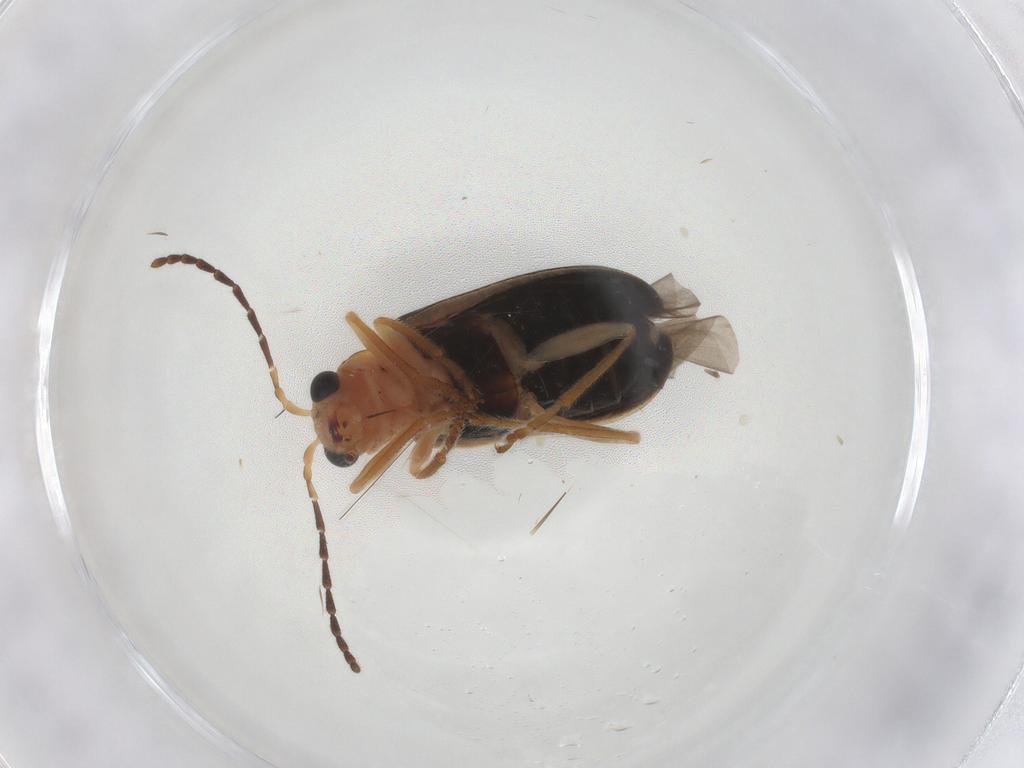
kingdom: Animalia
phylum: Arthropoda
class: Insecta
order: Coleoptera
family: Chrysomelidae
